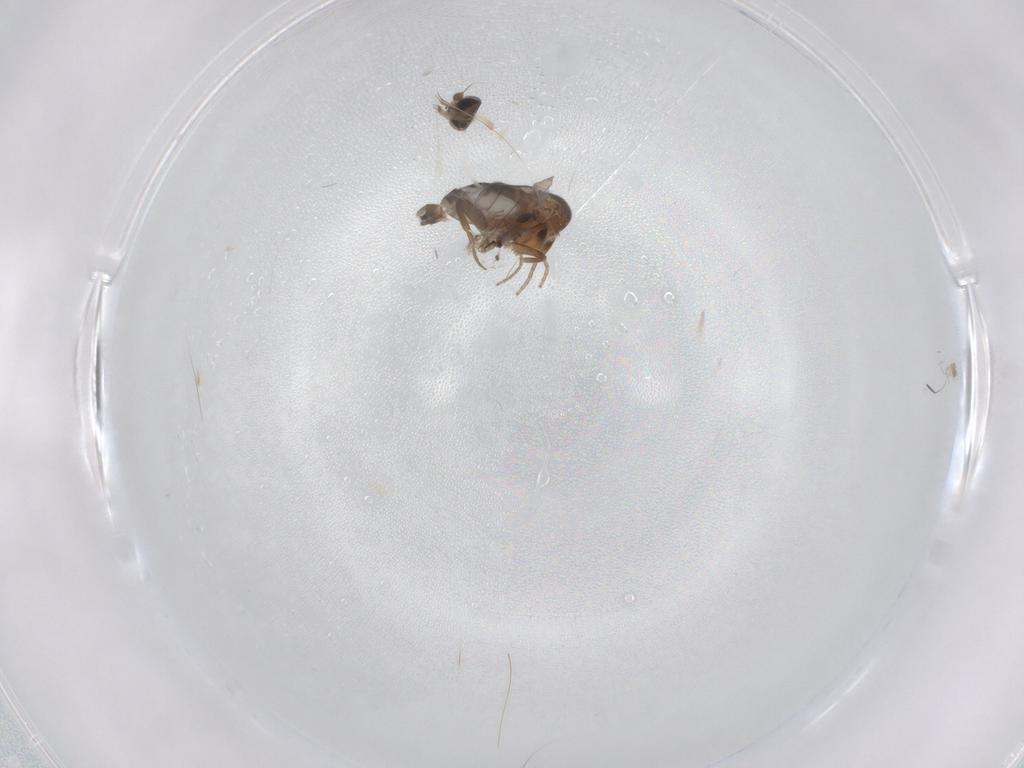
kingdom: Animalia
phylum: Arthropoda
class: Insecta
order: Diptera
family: Phoridae
